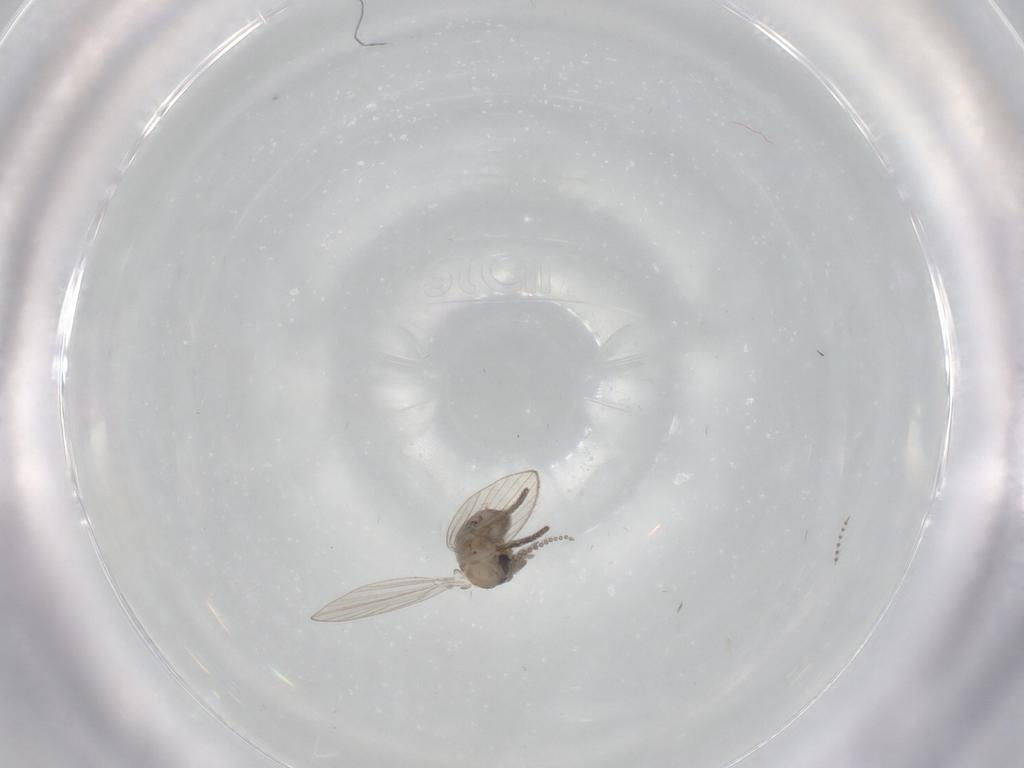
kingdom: Animalia
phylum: Arthropoda
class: Insecta
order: Diptera
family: Psychodidae
